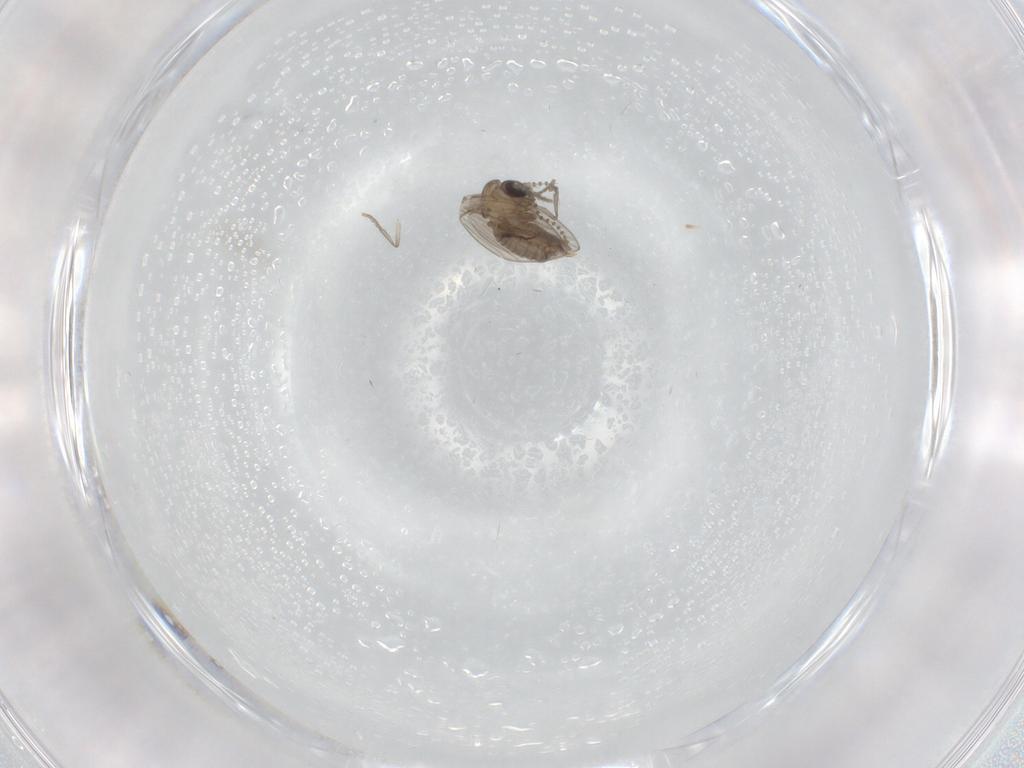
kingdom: Animalia
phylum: Arthropoda
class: Insecta
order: Diptera
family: Psychodidae
